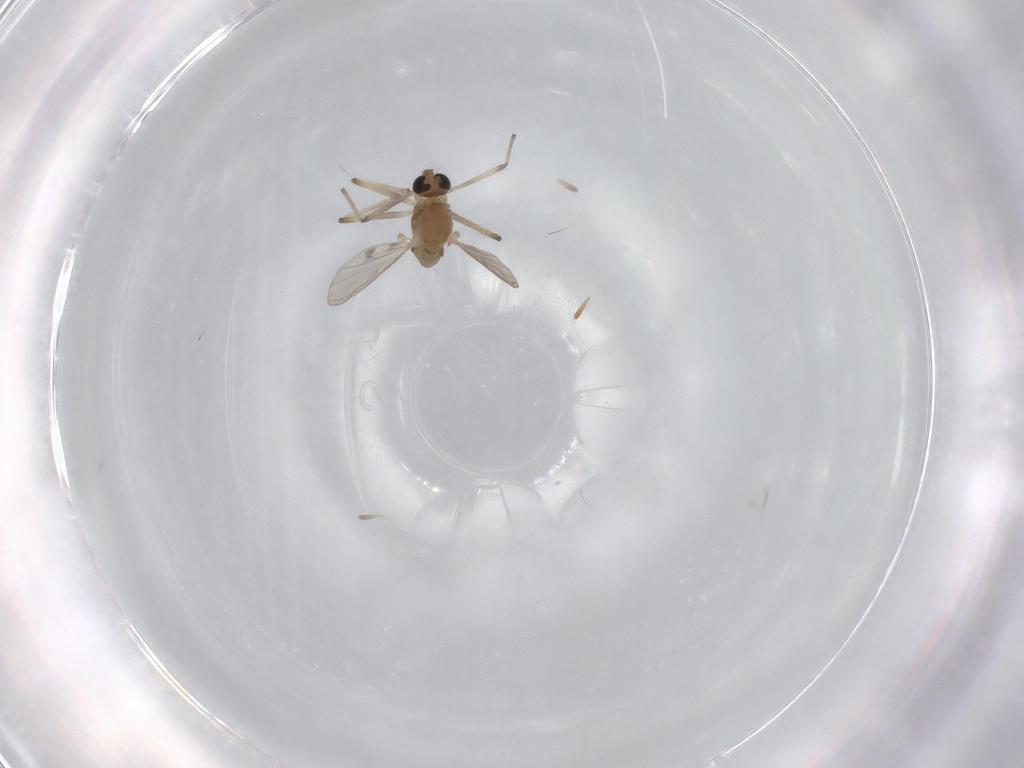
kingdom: Animalia
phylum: Arthropoda
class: Insecta
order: Diptera
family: Chironomidae
